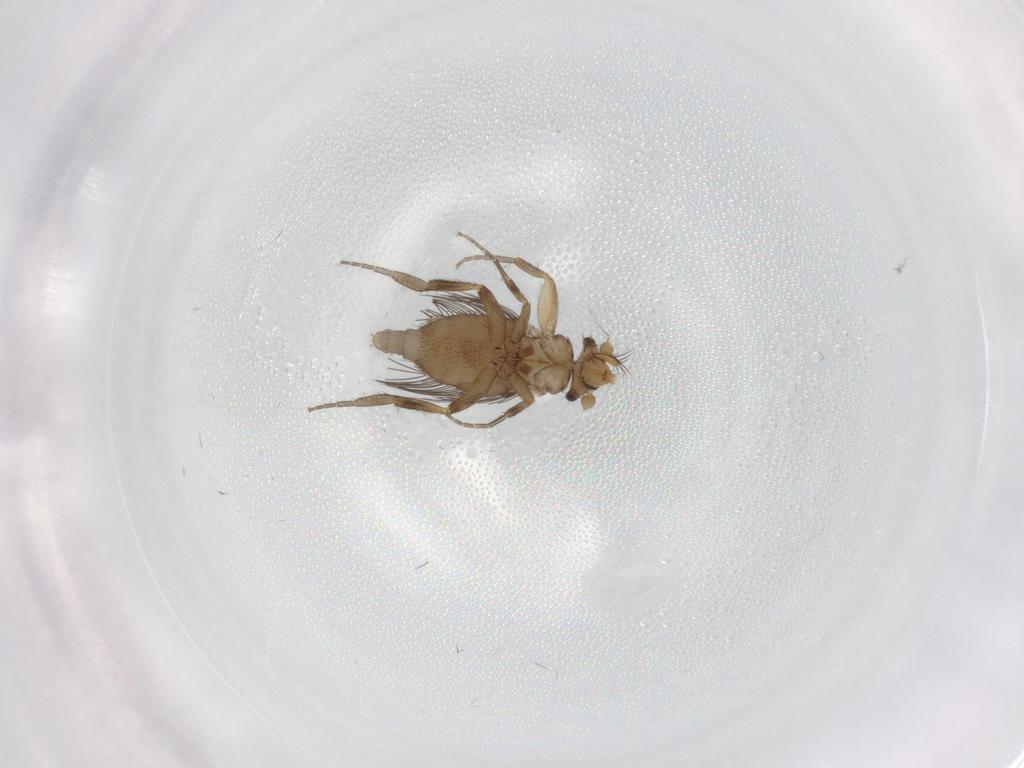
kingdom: Animalia
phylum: Arthropoda
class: Insecta
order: Diptera
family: Phoridae
